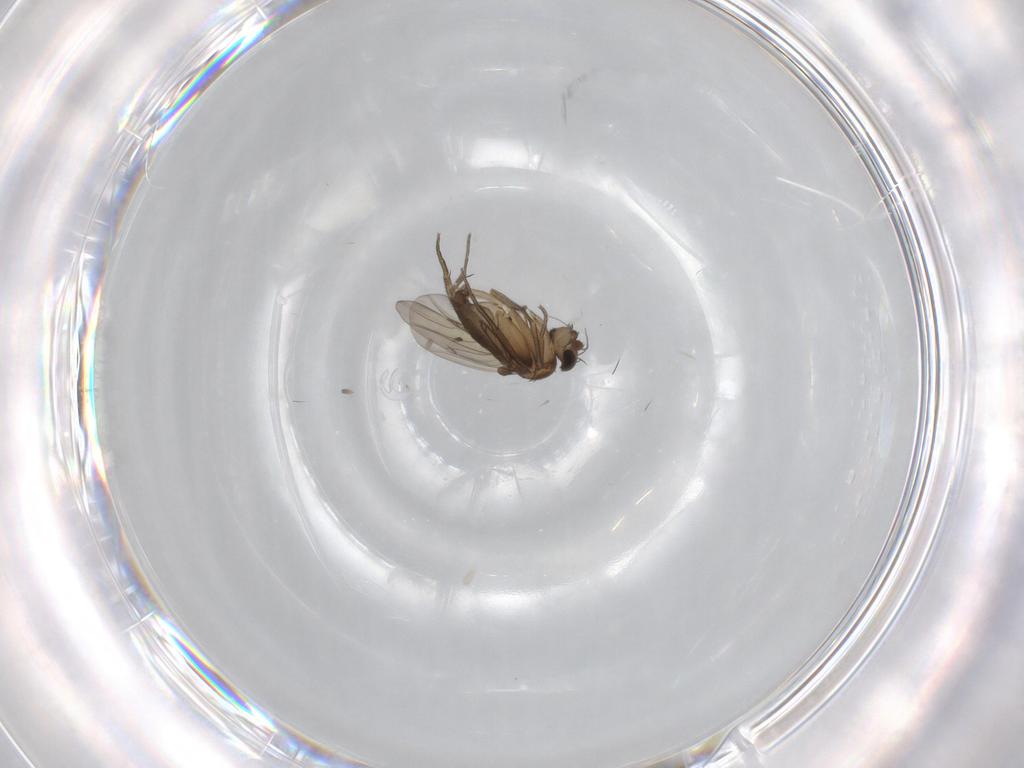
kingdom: Animalia
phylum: Arthropoda
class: Insecta
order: Diptera
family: Phoridae
